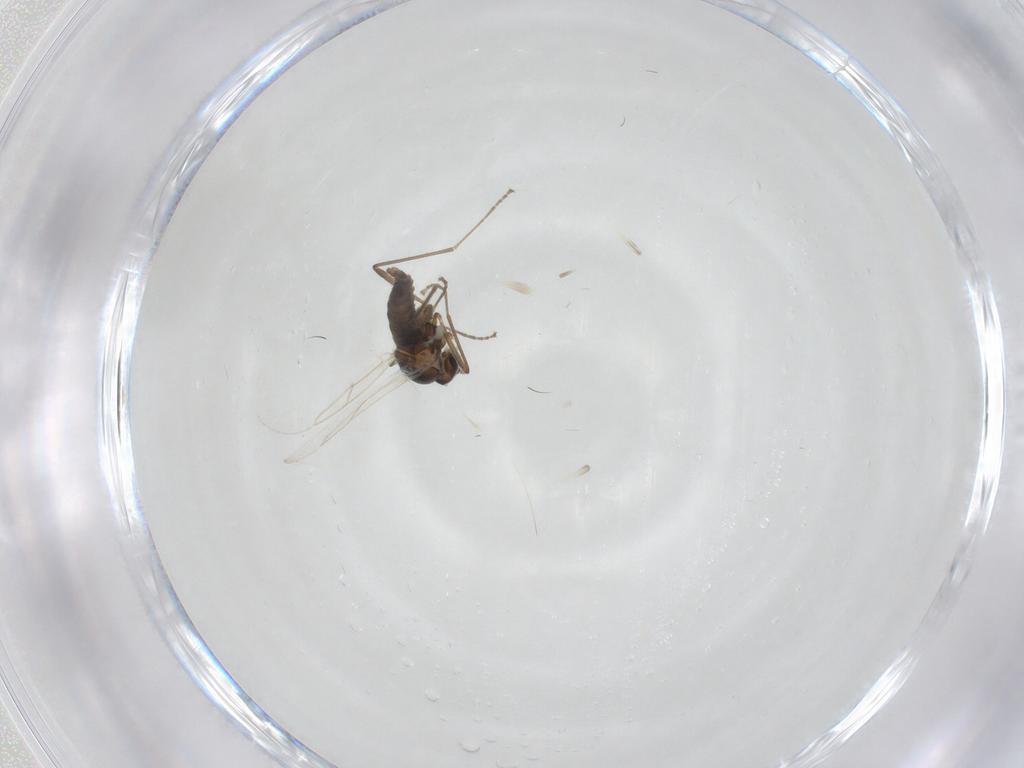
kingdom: Animalia
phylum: Arthropoda
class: Insecta
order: Diptera
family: Cecidomyiidae
